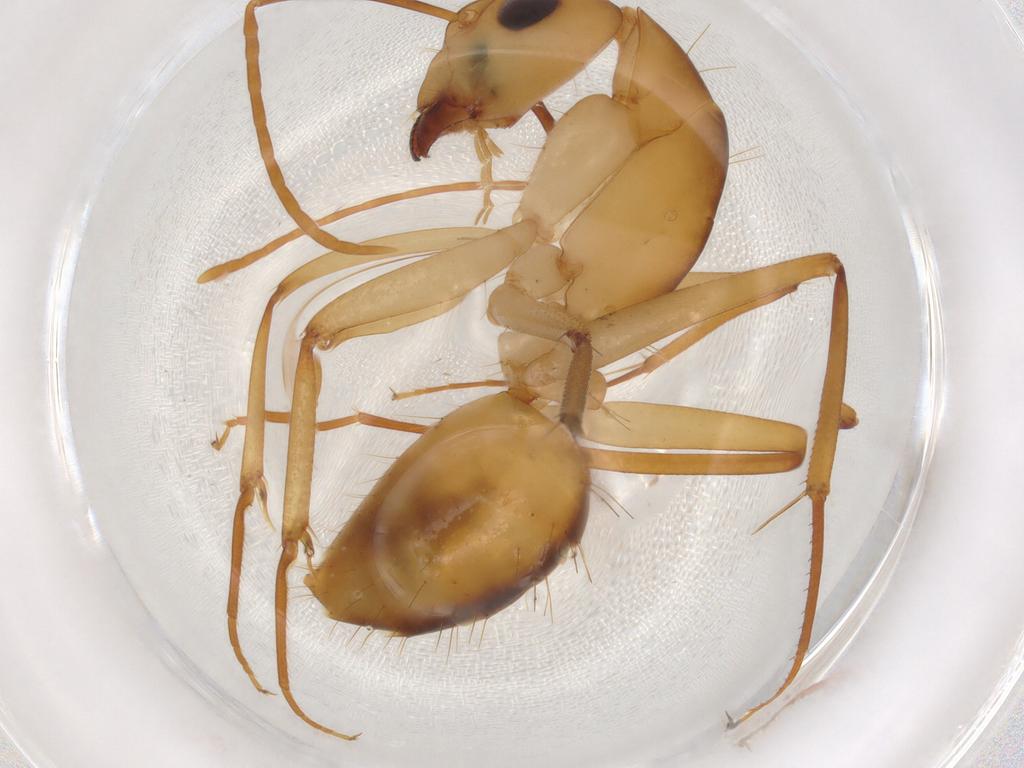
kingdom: Animalia
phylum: Arthropoda
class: Insecta
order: Hymenoptera
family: Formicidae
